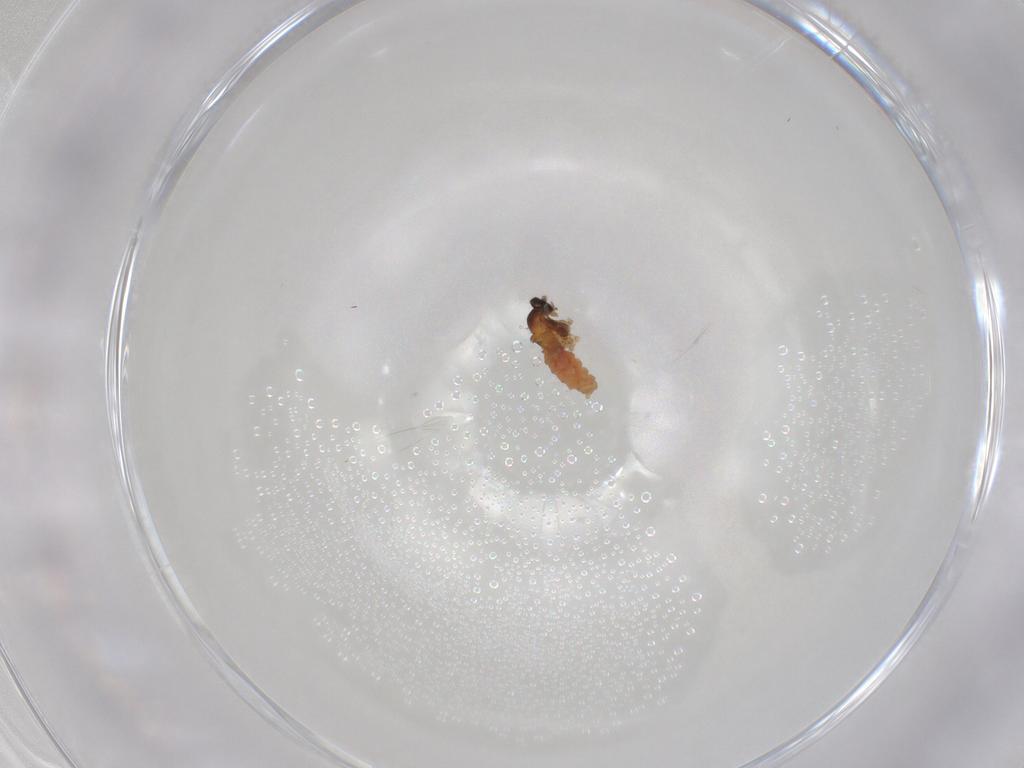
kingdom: Animalia
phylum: Arthropoda
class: Insecta
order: Diptera
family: Cecidomyiidae
